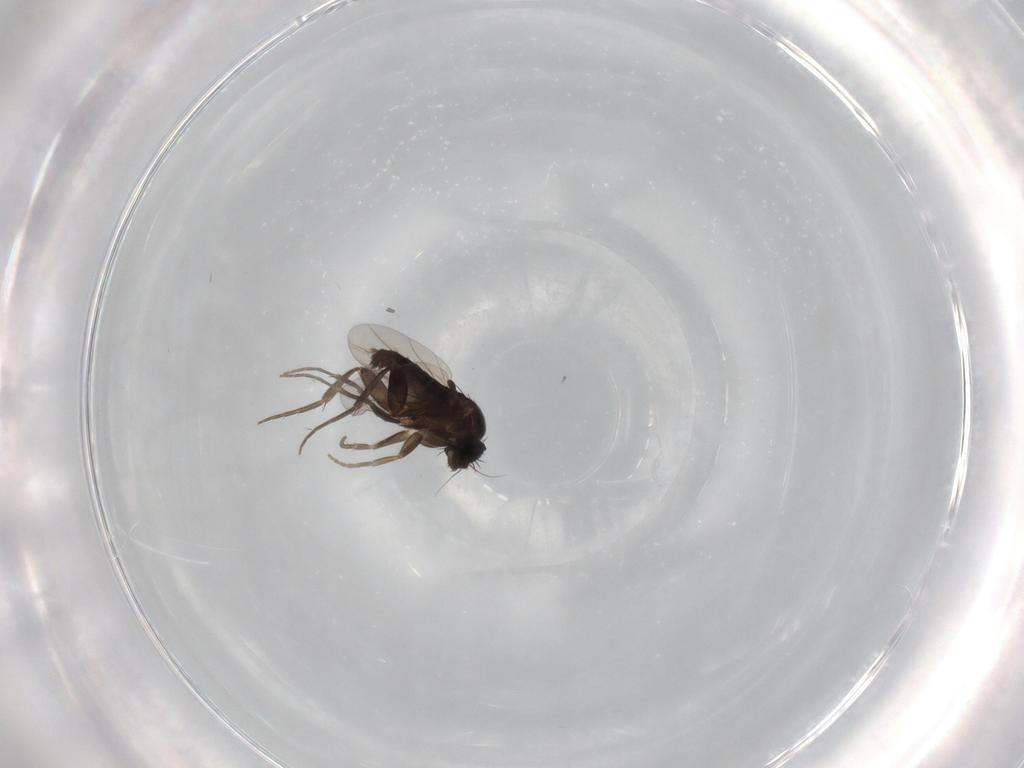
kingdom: Animalia
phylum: Arthropoda
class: Insecta
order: Diptera
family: Phoridae
